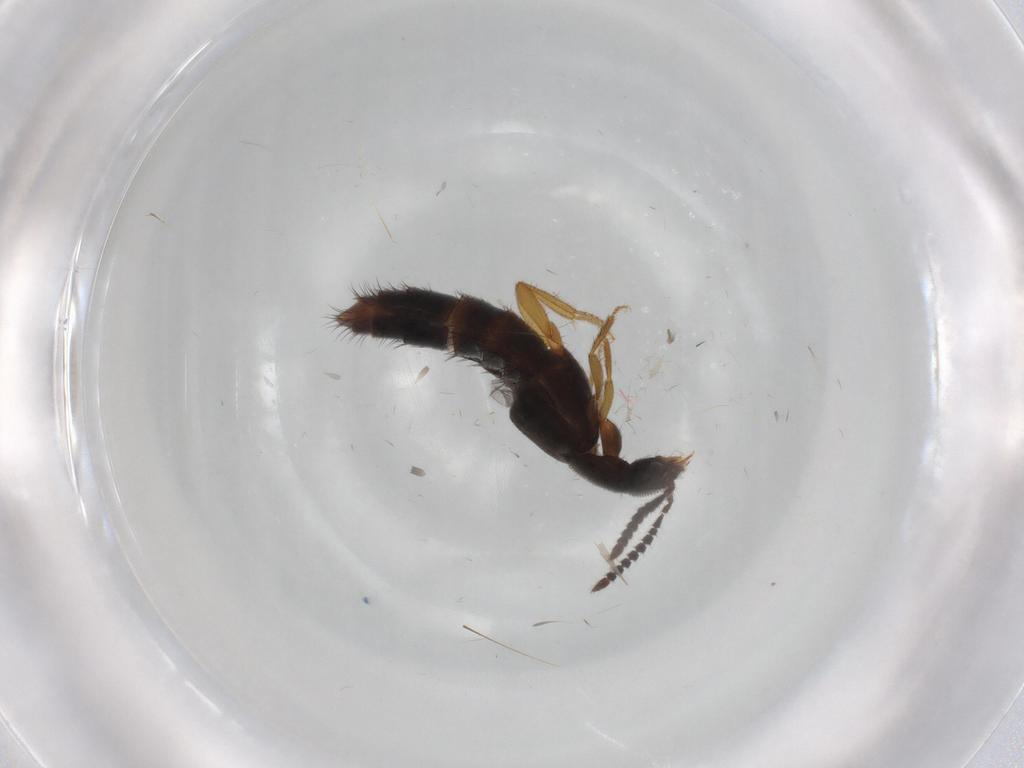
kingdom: Animalia
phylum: Arthropoda
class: Insecta
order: Coleoptera
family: Staphylinidae
